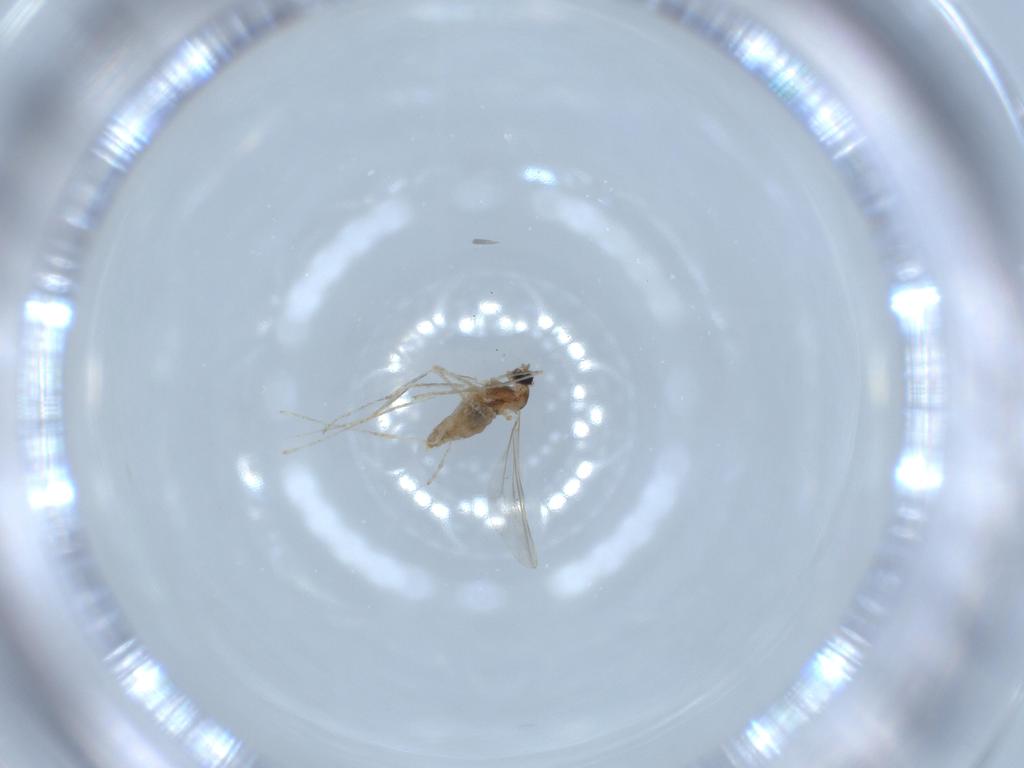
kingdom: Animalia
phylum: Arthropoda
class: Insecta
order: Diptera
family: Cecidomyiidae
